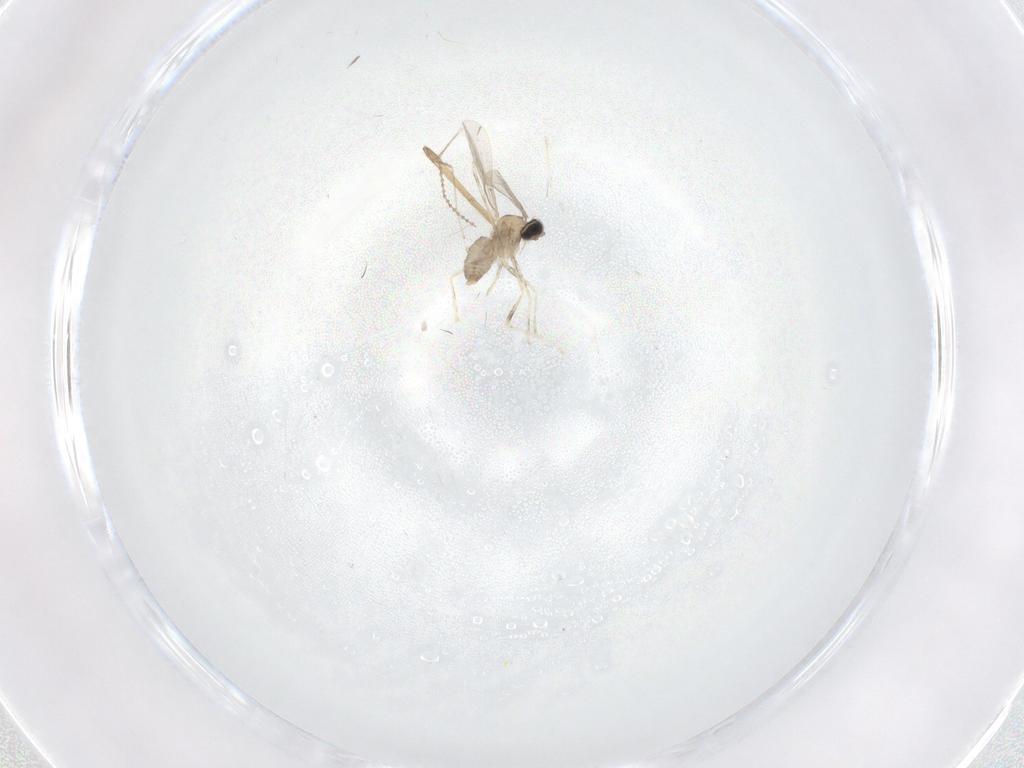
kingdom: Animalia
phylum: Arthropoda
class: Insecta
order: Diptera
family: Cecidomyiidae
